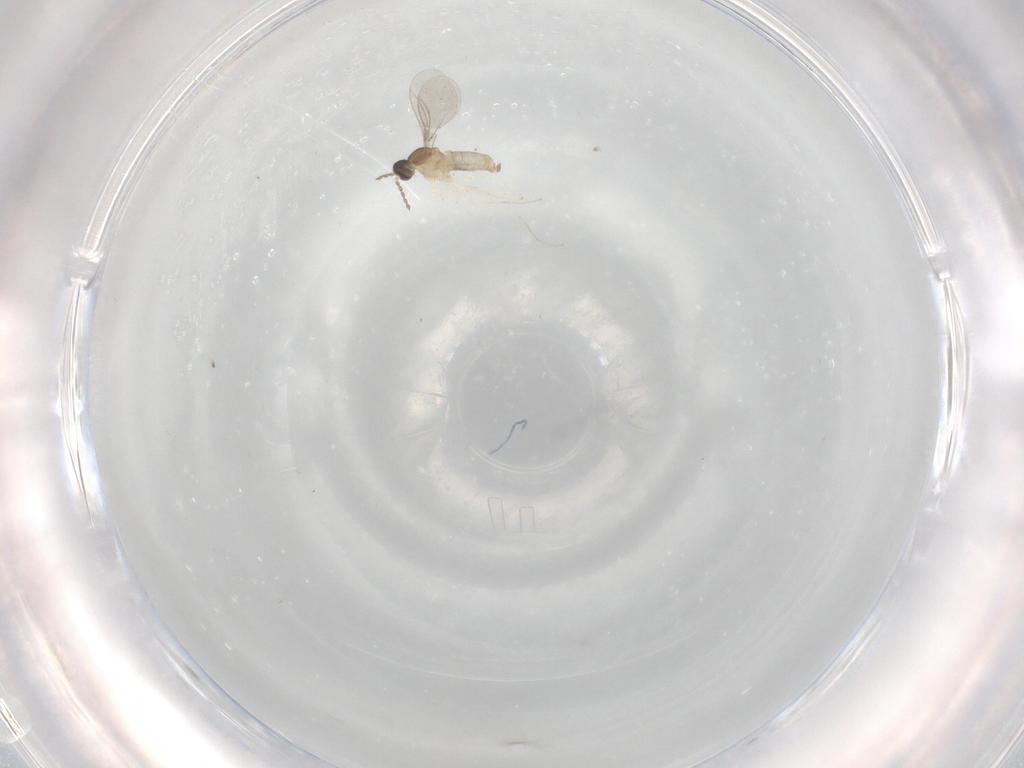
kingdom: Animalia
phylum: Arthropoda
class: Insecta
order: Diptera
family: Cecidomyiidae
